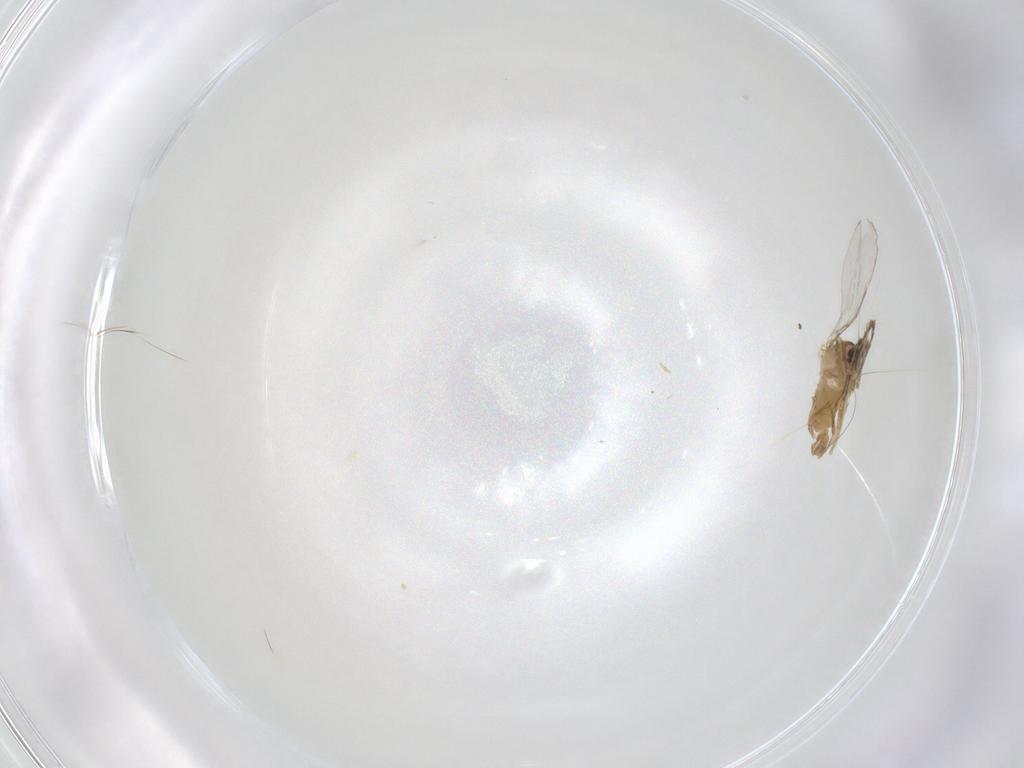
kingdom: Animalia
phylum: Arthropoda
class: Insecta
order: Diptera
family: Cecidomyiidae
